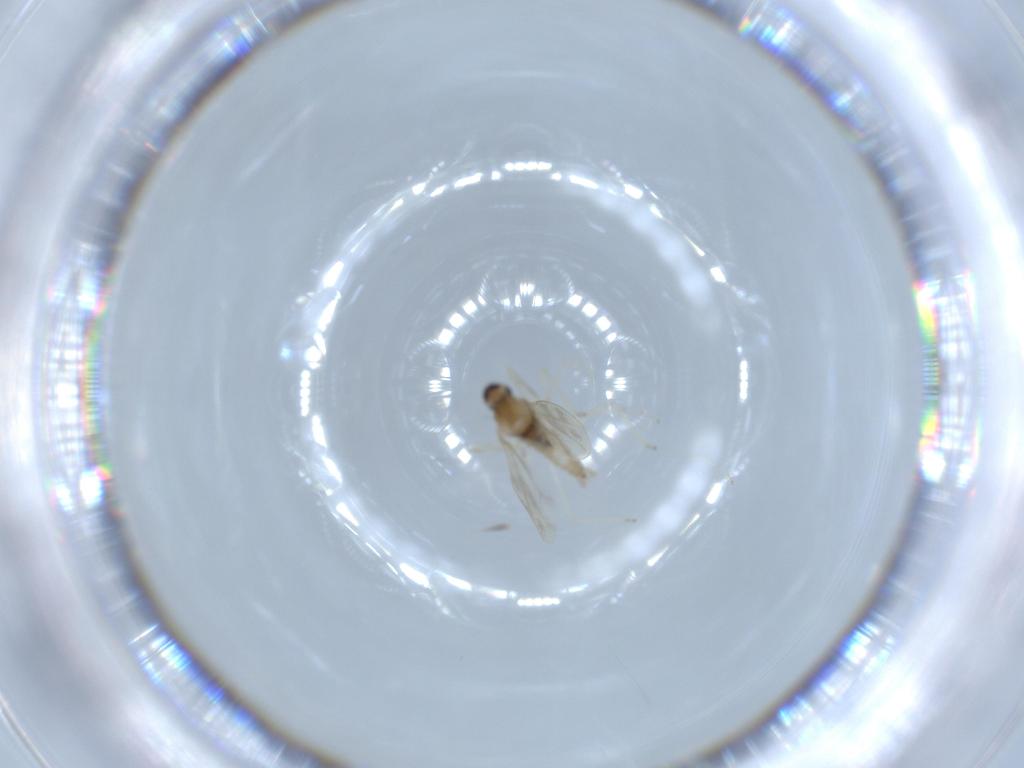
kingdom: Animalia
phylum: Arthropoda
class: Insecta
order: Diptera
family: Cecidomyiidae
